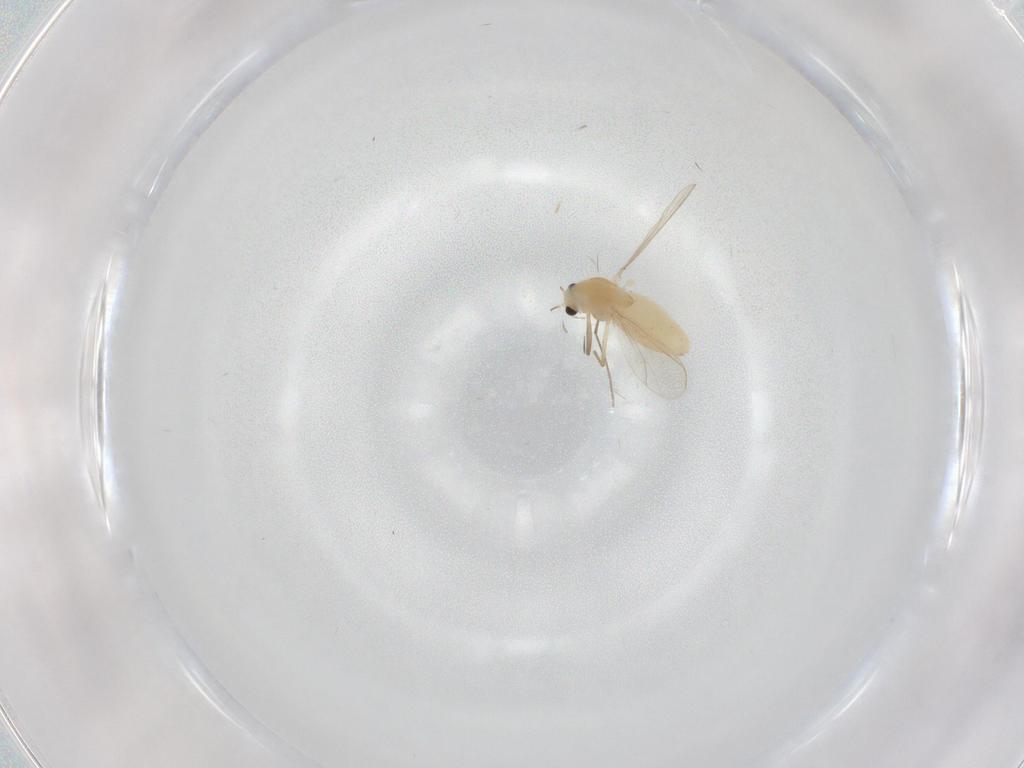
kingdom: Animalia
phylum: Arthropoda
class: Insecta
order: Diptera
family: Chironomidae
